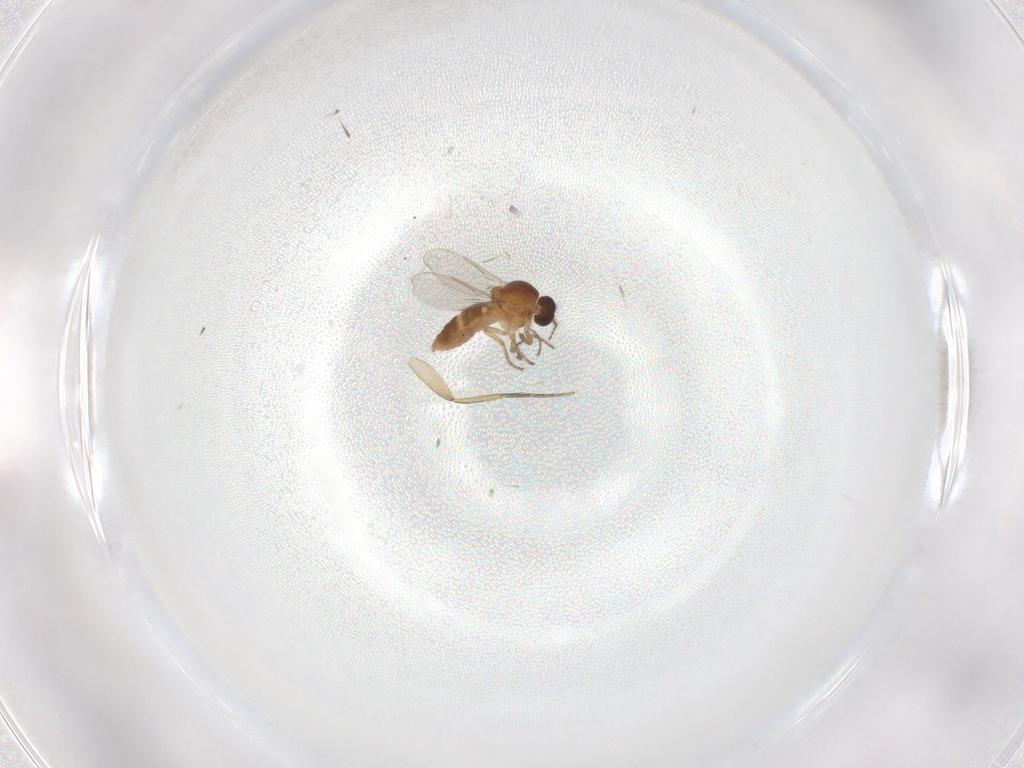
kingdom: Animalia
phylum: Arthropoda
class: Insecta
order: Diptera
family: Ceratopogonidae
